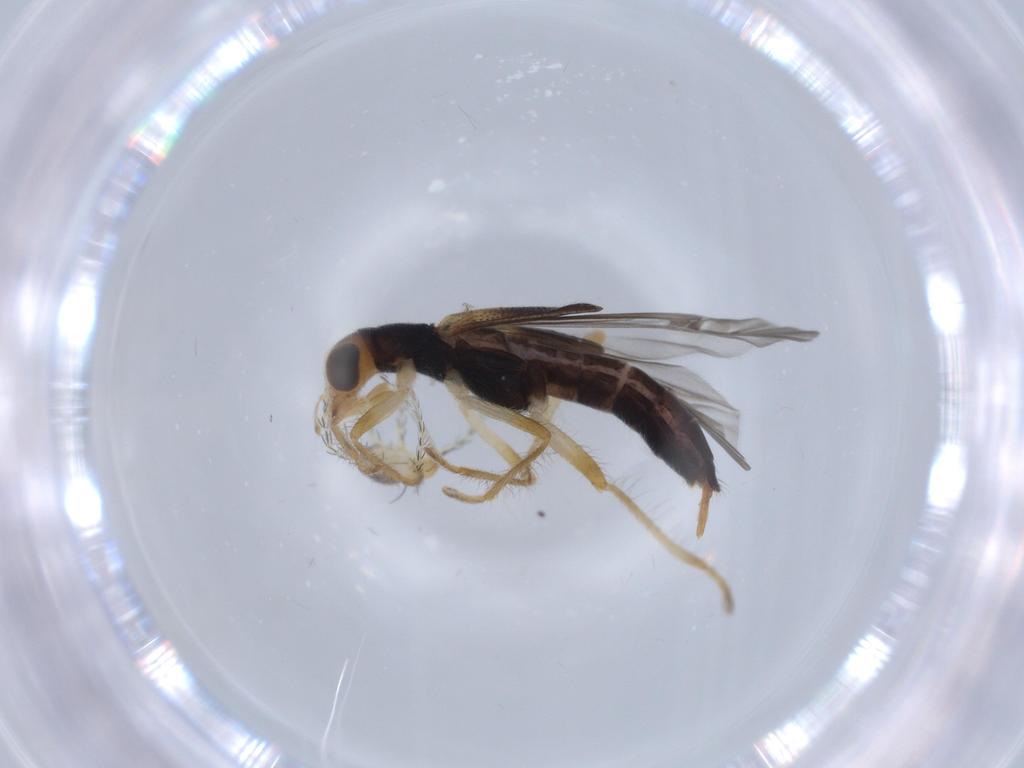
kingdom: Animalia
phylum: Arthropoda
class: Insecta
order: Coleoptera
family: Cleridae
